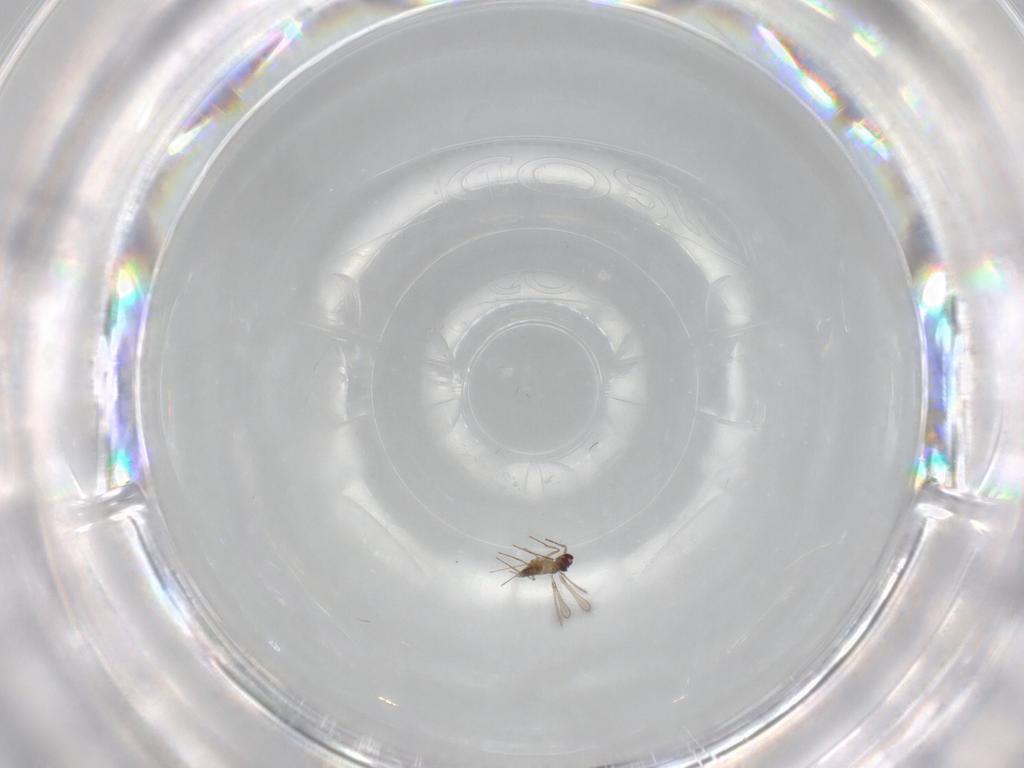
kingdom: Animalia
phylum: Arthropoda
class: Insecta
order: Hymenoptera
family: Mymaridae
